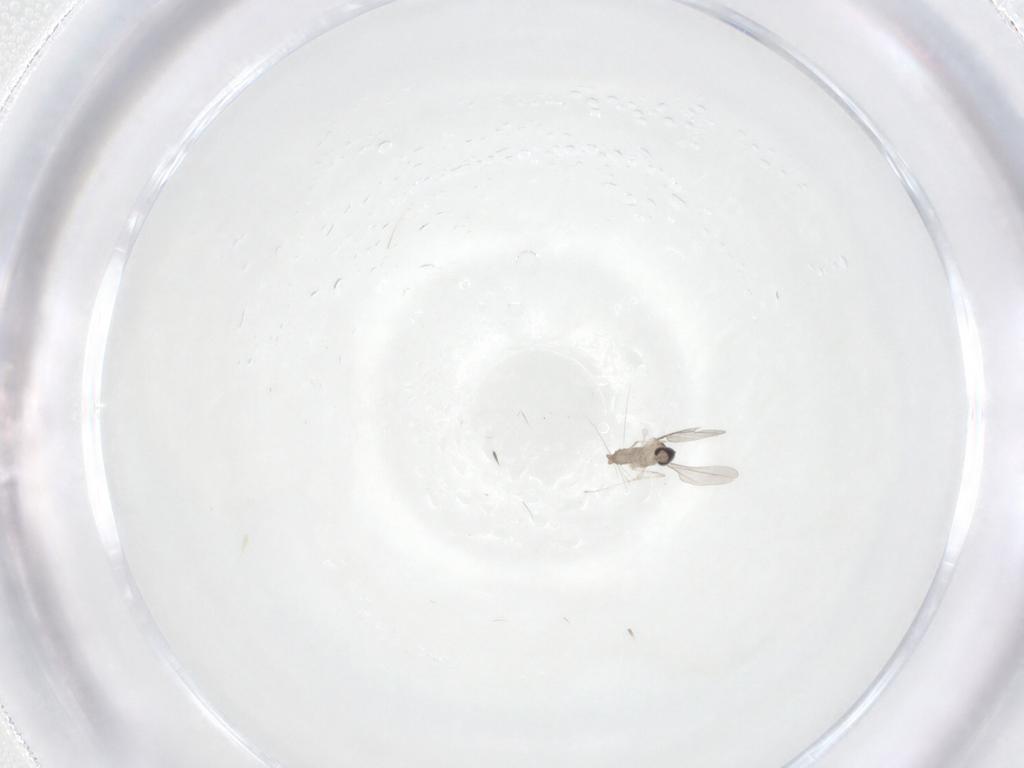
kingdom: Animalia
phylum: Arthropoda
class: Insecta
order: Diptera
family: Cecidomyiidae
